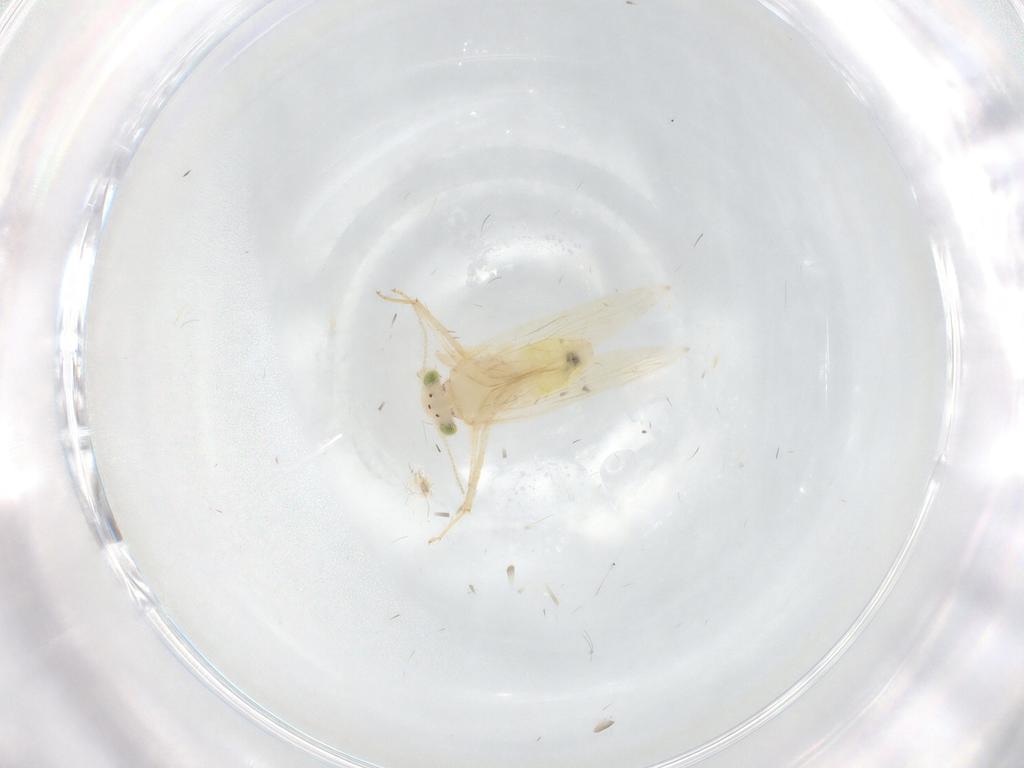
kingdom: Animalia
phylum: Arthropoda
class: Insecta
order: Psocodea
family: Lepidopsocidae
